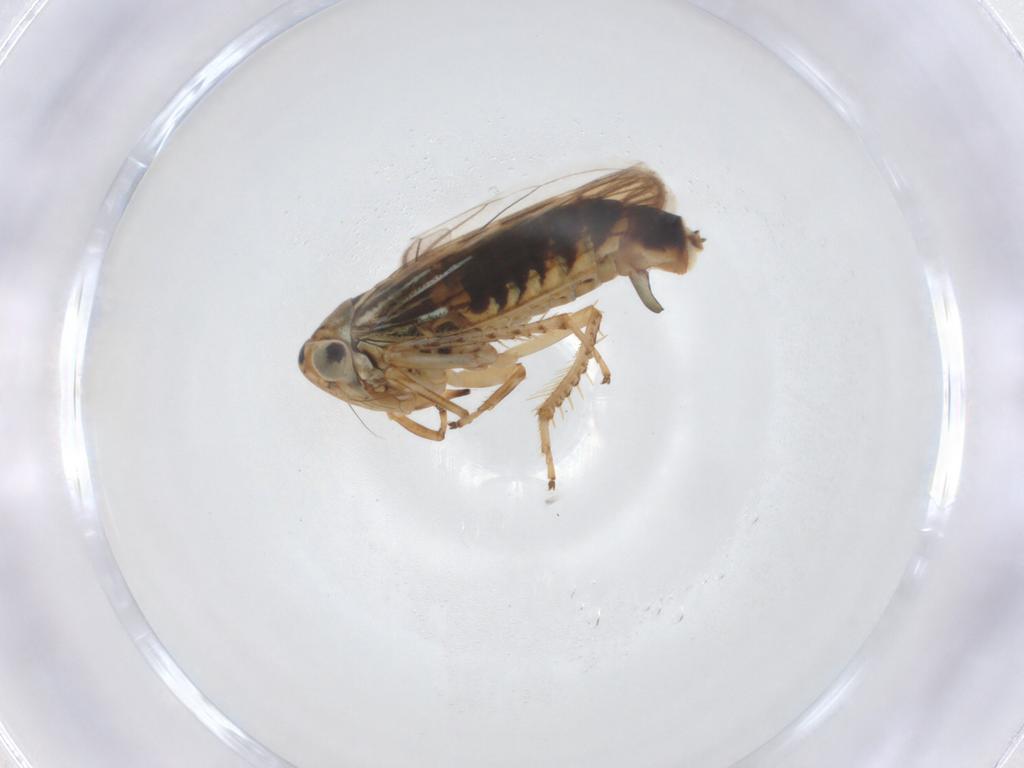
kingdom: Animalia
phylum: Arthropoda
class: Insecta
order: Hemiptera
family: Cicadellidae
